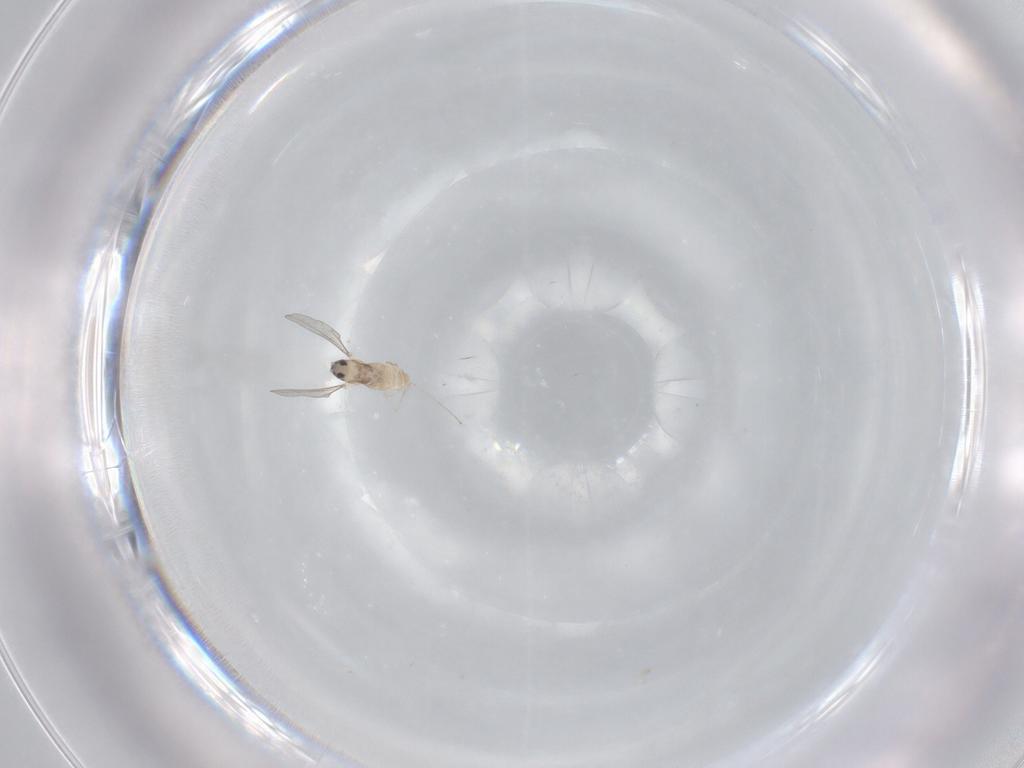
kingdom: Animalia
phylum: Arthropoda
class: Insecta
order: Diptera
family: Cecidomyiidae
